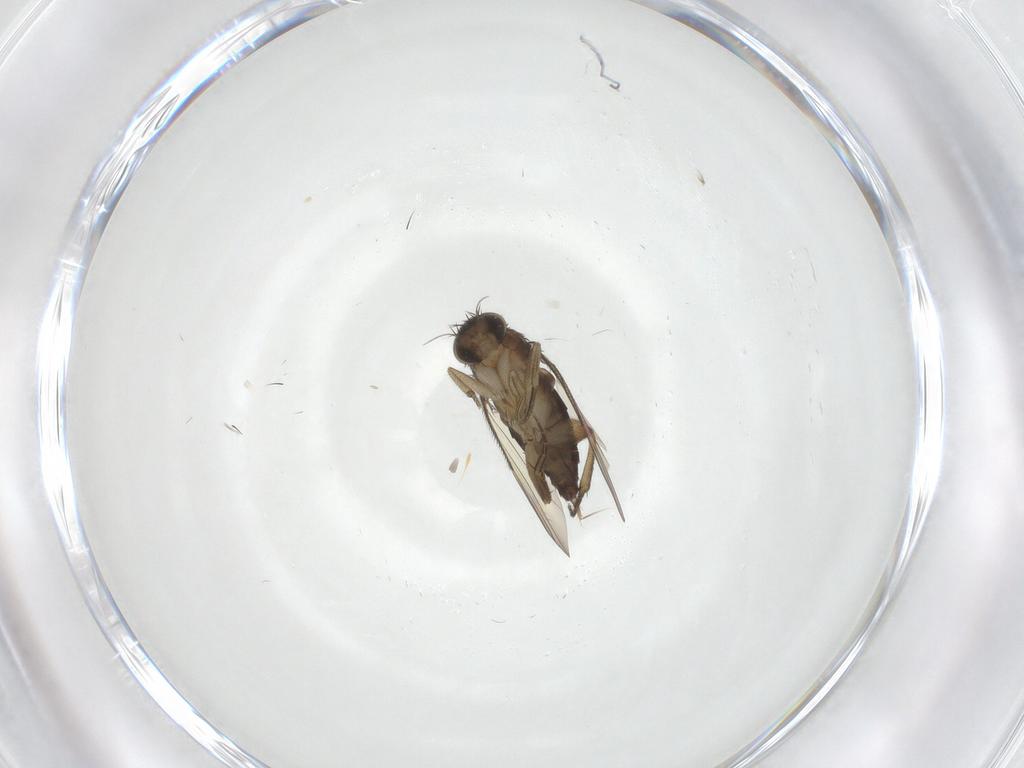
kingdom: Animalia
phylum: Arthropoda
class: Insecta
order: Diptera
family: Phoridae
